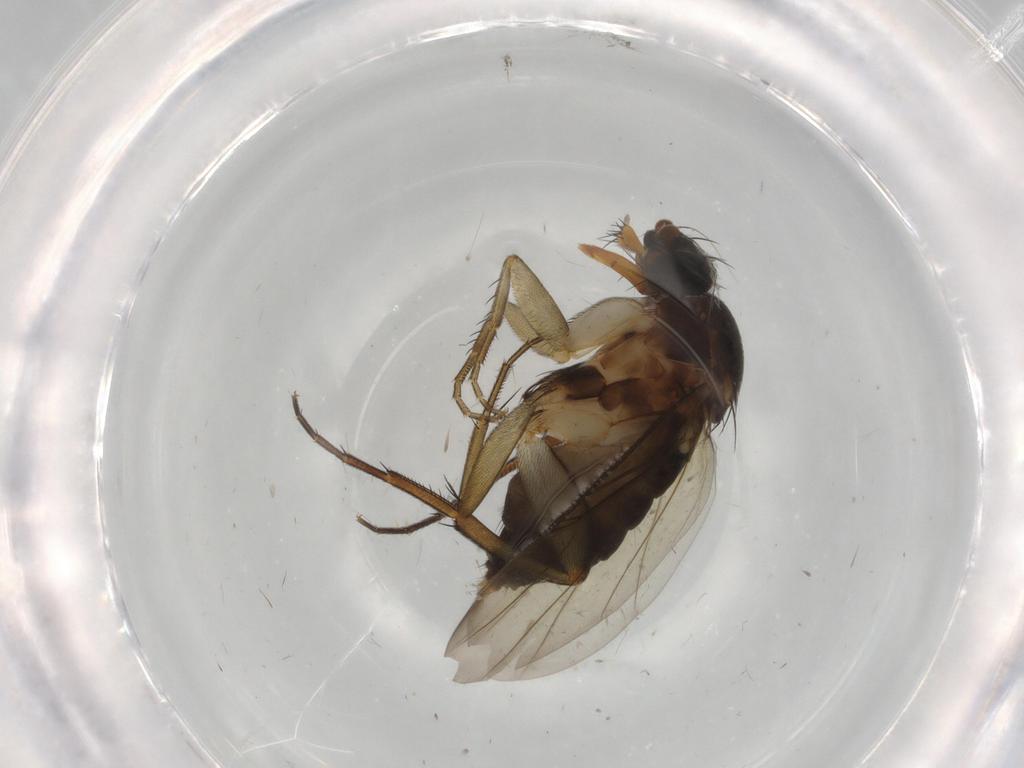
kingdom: Animalia
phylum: Arthropoda
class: Insecta
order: Diptera
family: Phoridae
